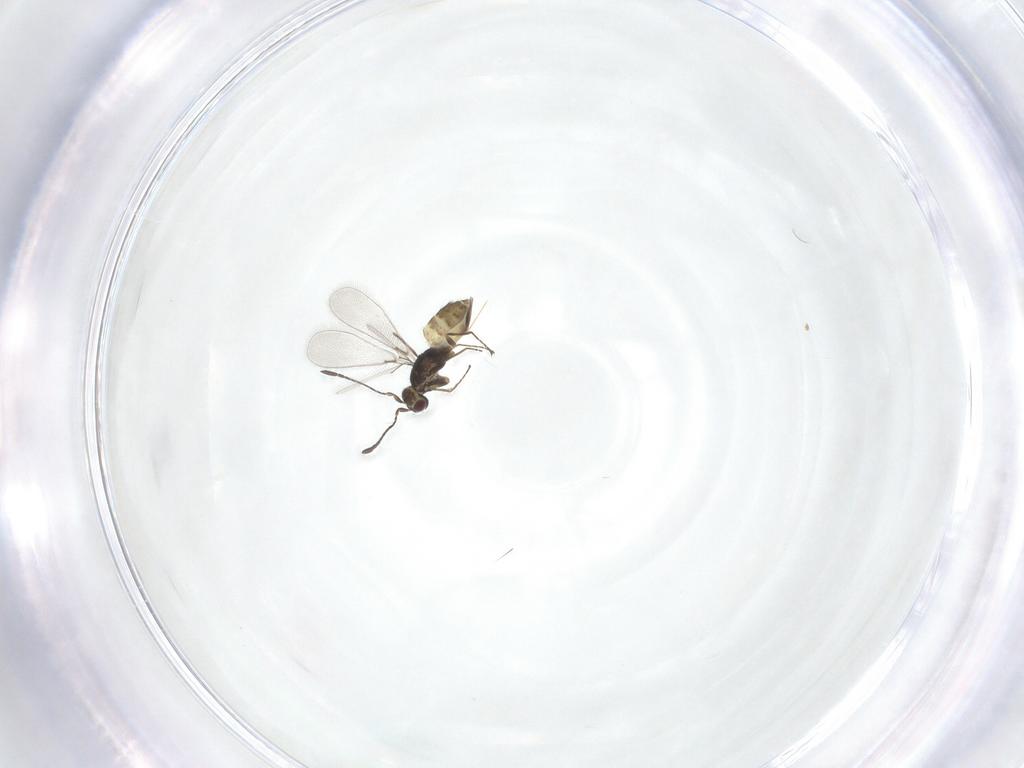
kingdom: Animalia
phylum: Arthropoda
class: Insecta
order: Hymenoptera
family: Mymaridae
